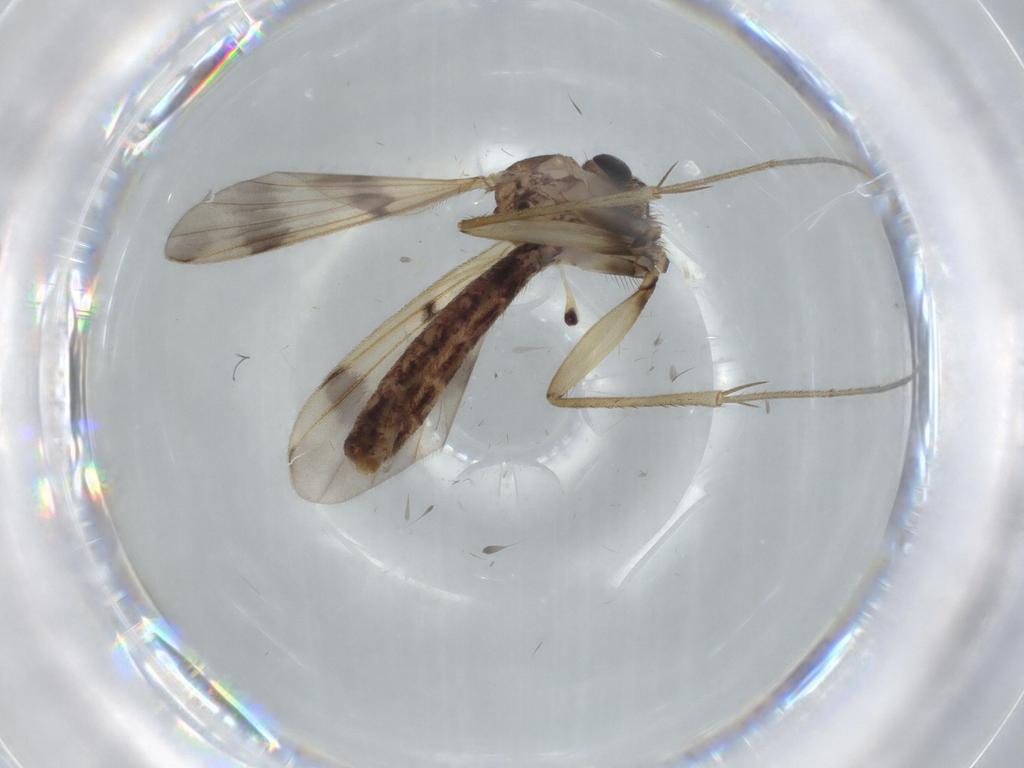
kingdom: Animalia
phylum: Arthropoda
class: Insecta
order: Diptera
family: Cecidomyiidae
